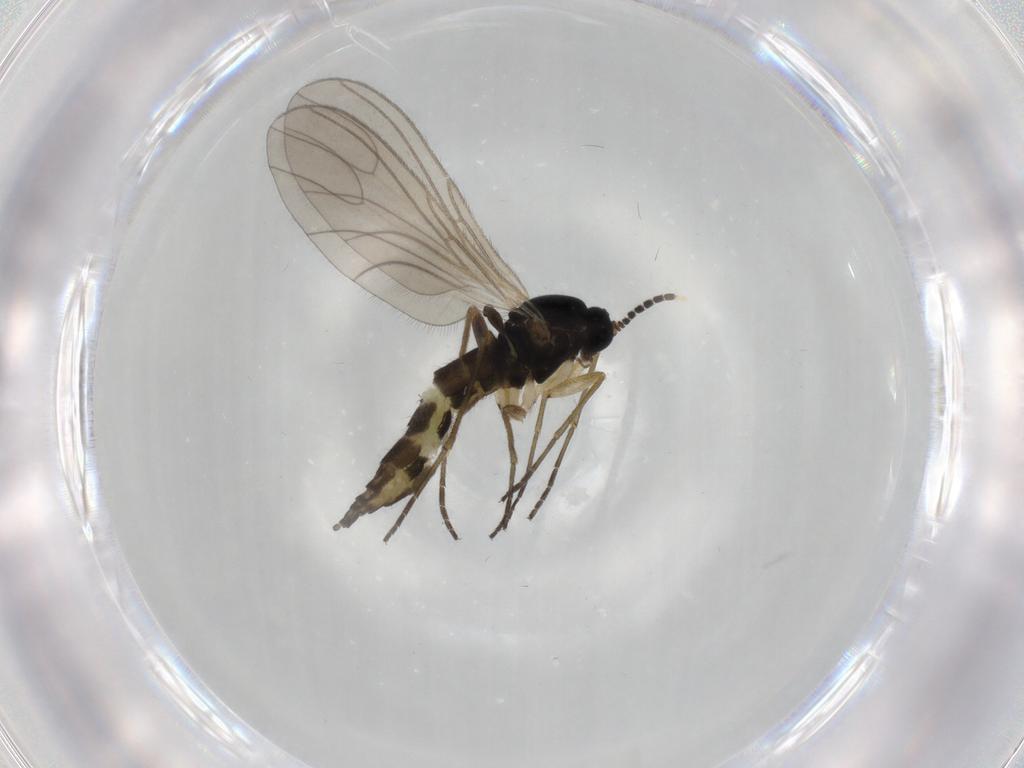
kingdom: Animalia
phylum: Arthropoda
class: Insecta
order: Diptera
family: Sciaridae
